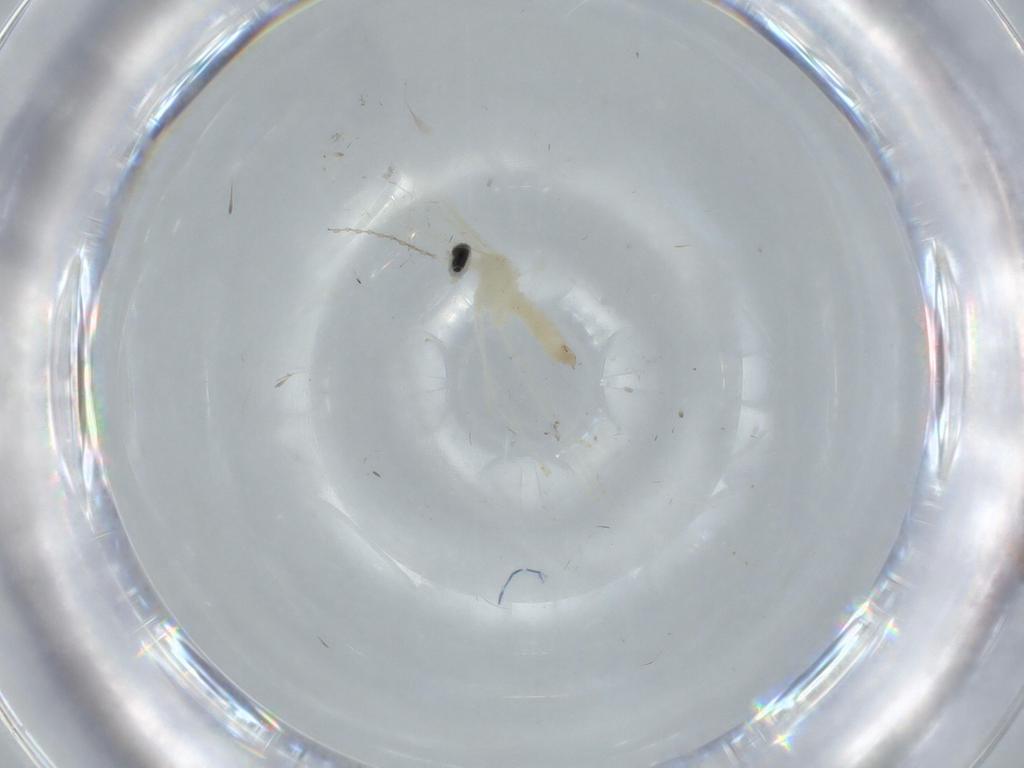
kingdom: Animalia
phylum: Arthropoda
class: Insecta
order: Diptera
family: Cecidomyiidae
